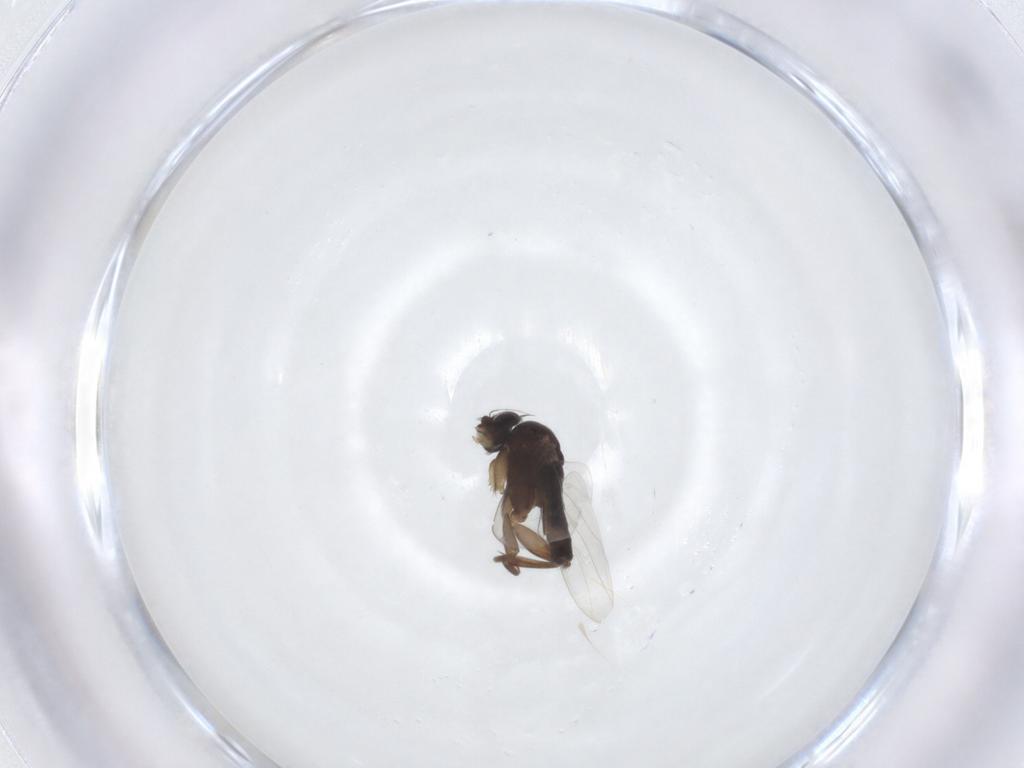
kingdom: Animalia
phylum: Arthropoda
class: Insecta
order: Diptera
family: Phoridae
